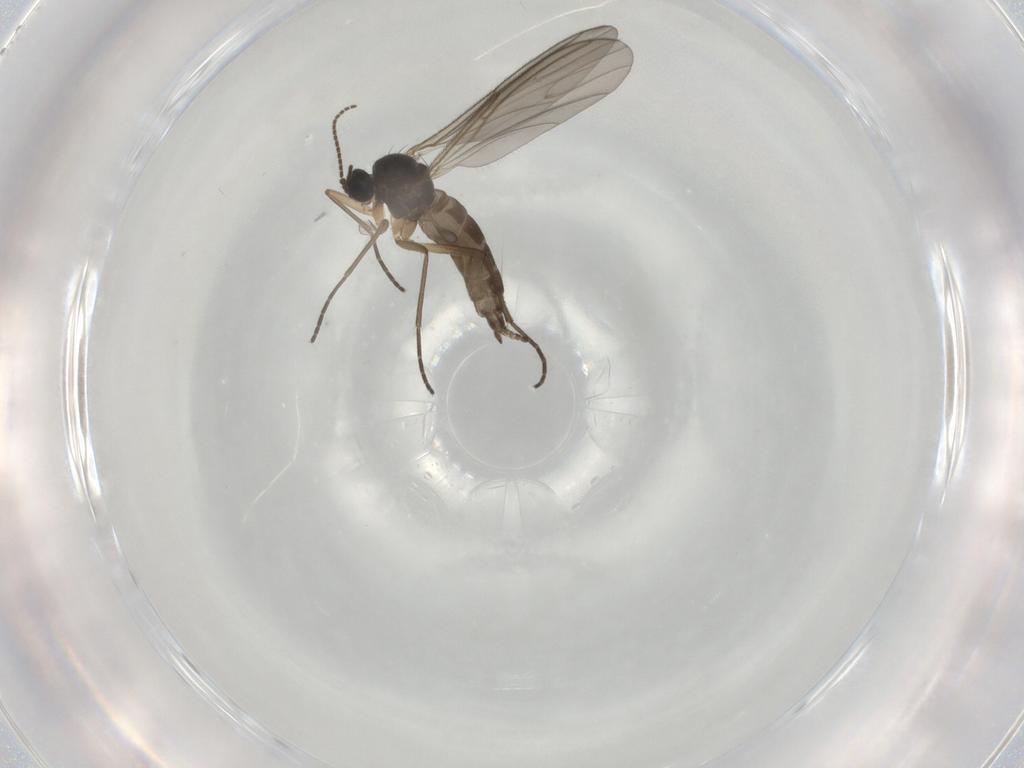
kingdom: Animalia
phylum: Arthropoda
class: Insecta
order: Diptera
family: Sciaridae
